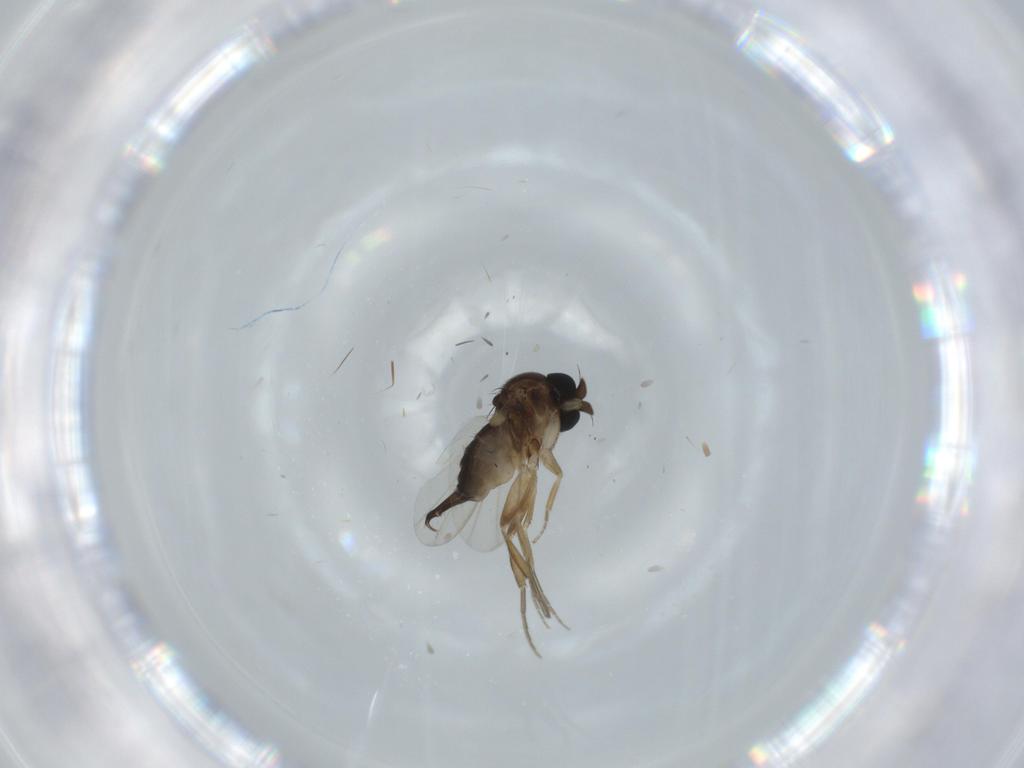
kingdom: Animalia
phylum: Arthropoda
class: Insecta
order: Diptera
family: Phoridae
